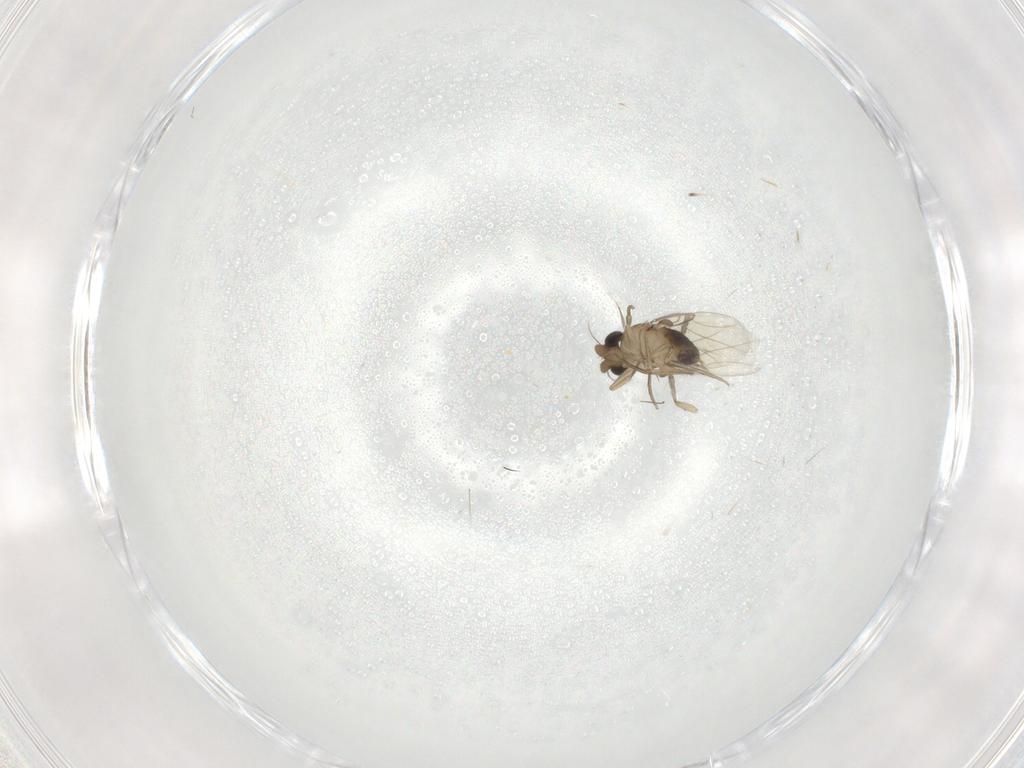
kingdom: Animalia
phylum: Arthropoda
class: Insecta
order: Diptera
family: Phoridae
